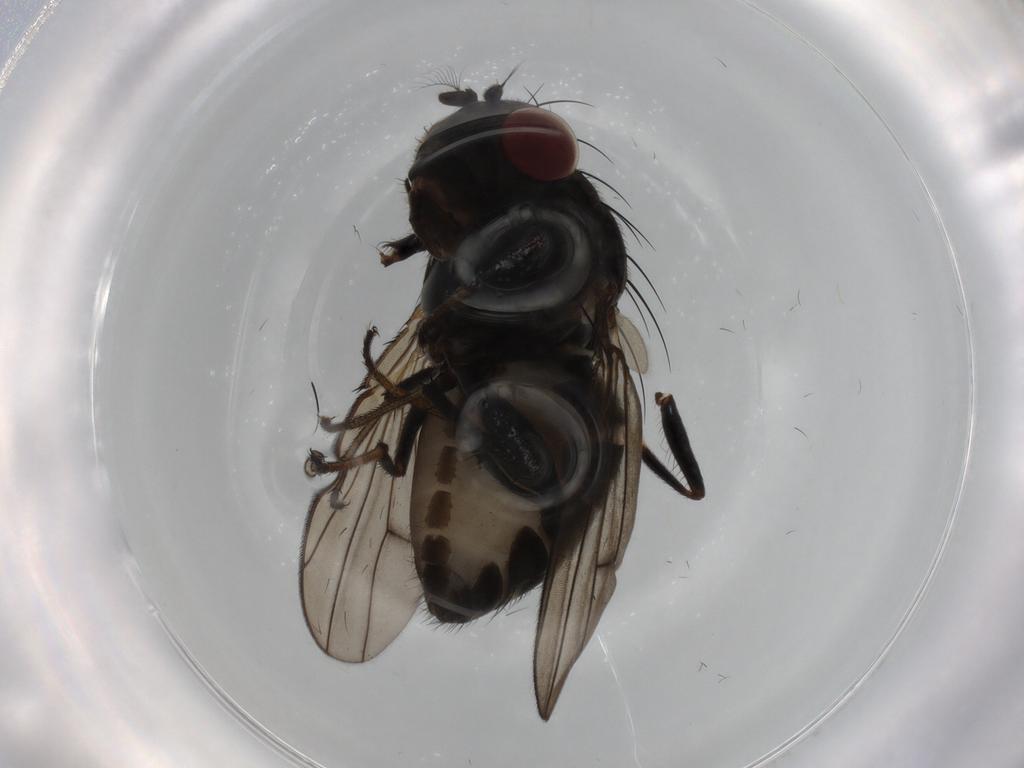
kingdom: Animalia
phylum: Arthropoda
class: Insecta
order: Diptera
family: Ephydridae
